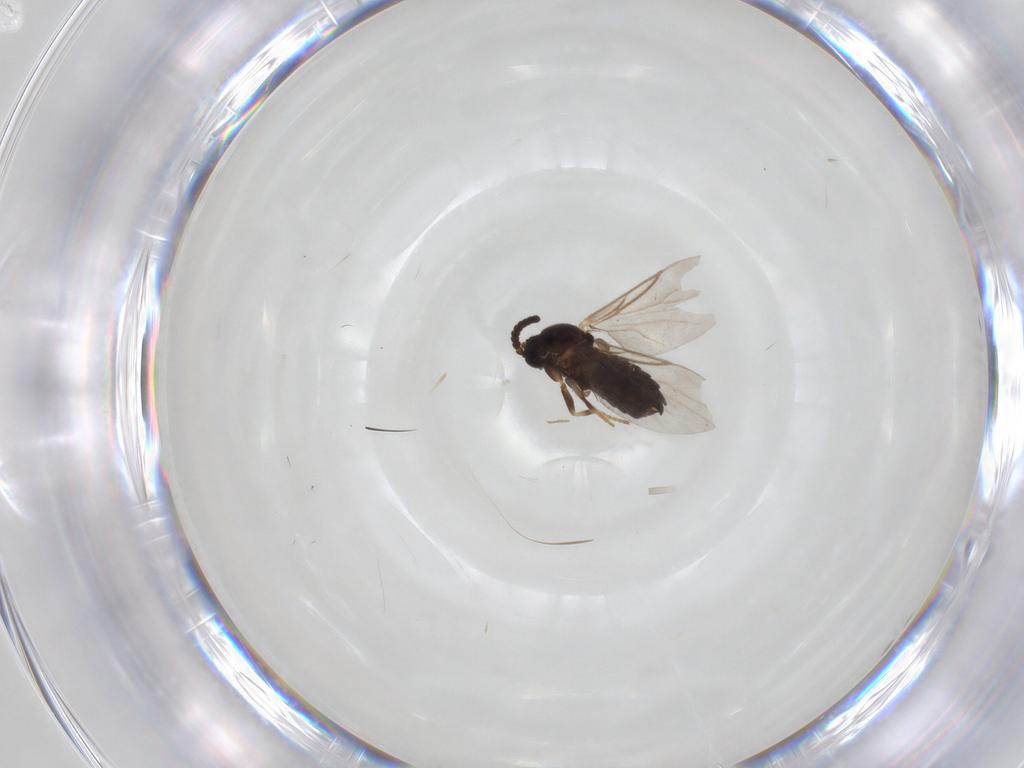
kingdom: Animalia
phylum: Arthropoda
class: Insecta
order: Diptera
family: Scatopsidae
